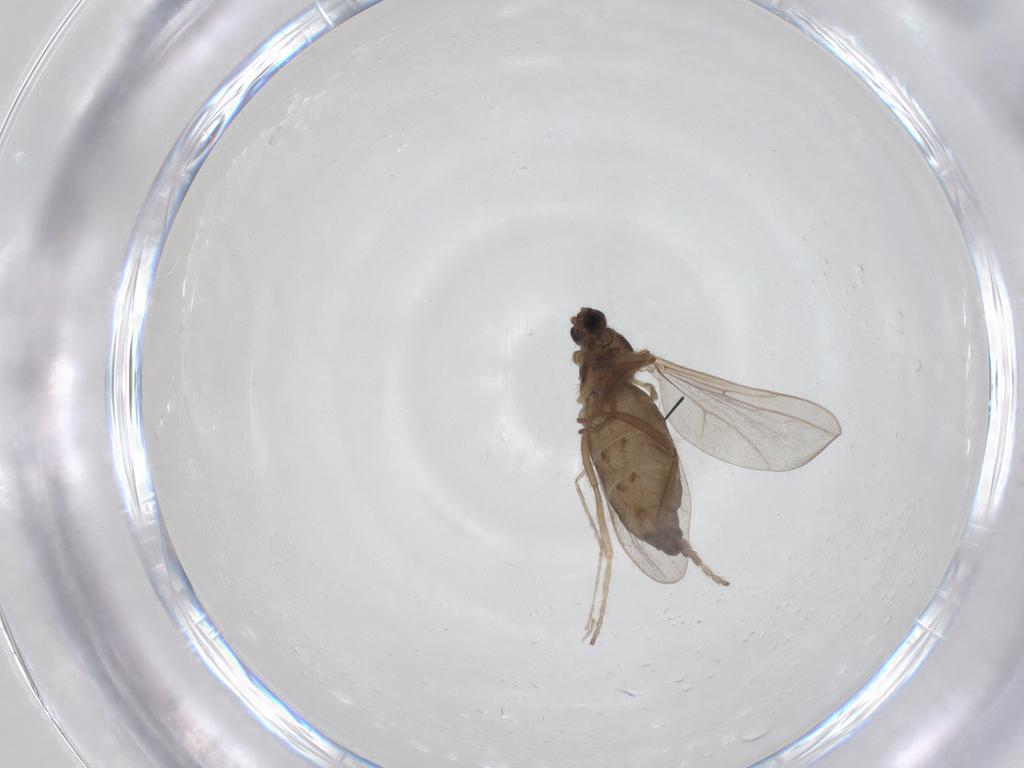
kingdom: Animalia
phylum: Arthropoda
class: Insecta
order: Diptera
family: Cecidomyiidae
